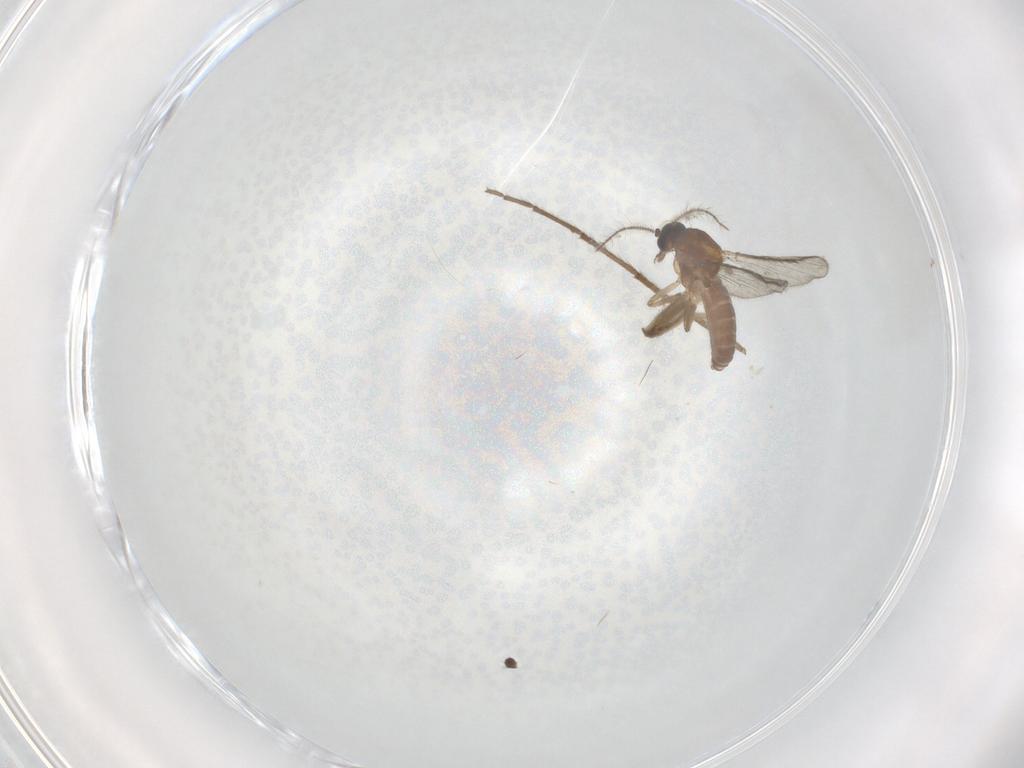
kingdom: Animalia
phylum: Arthropoda
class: Insecta
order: Diptera
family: Ceratopogonidae
